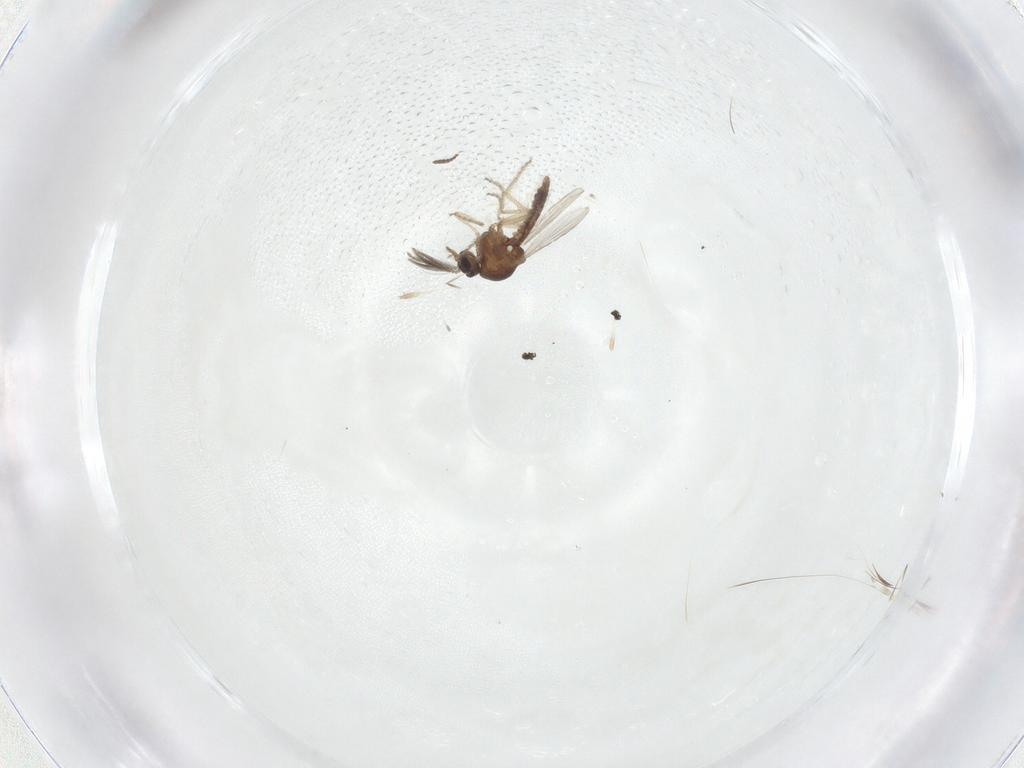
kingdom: Animalia
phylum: Arthropoda
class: Insecta
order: Diptera
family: Ceratopogonidae
